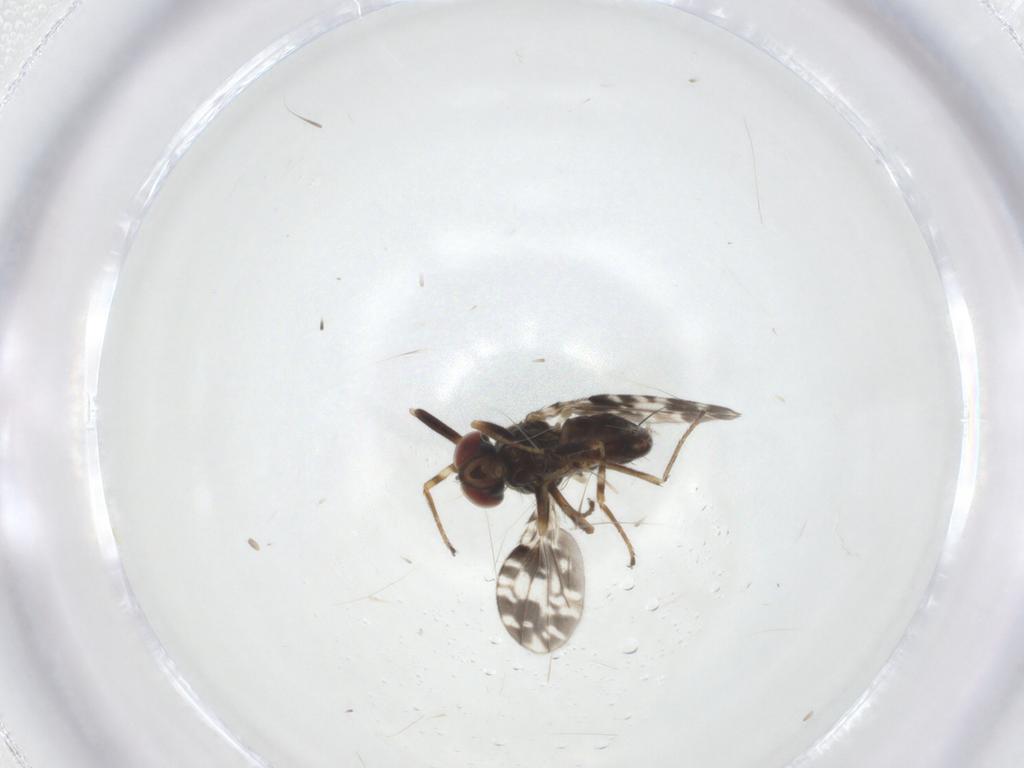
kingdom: Animalia
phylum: Arthropoda
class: Insecta
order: Diptera
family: Ephydridae
